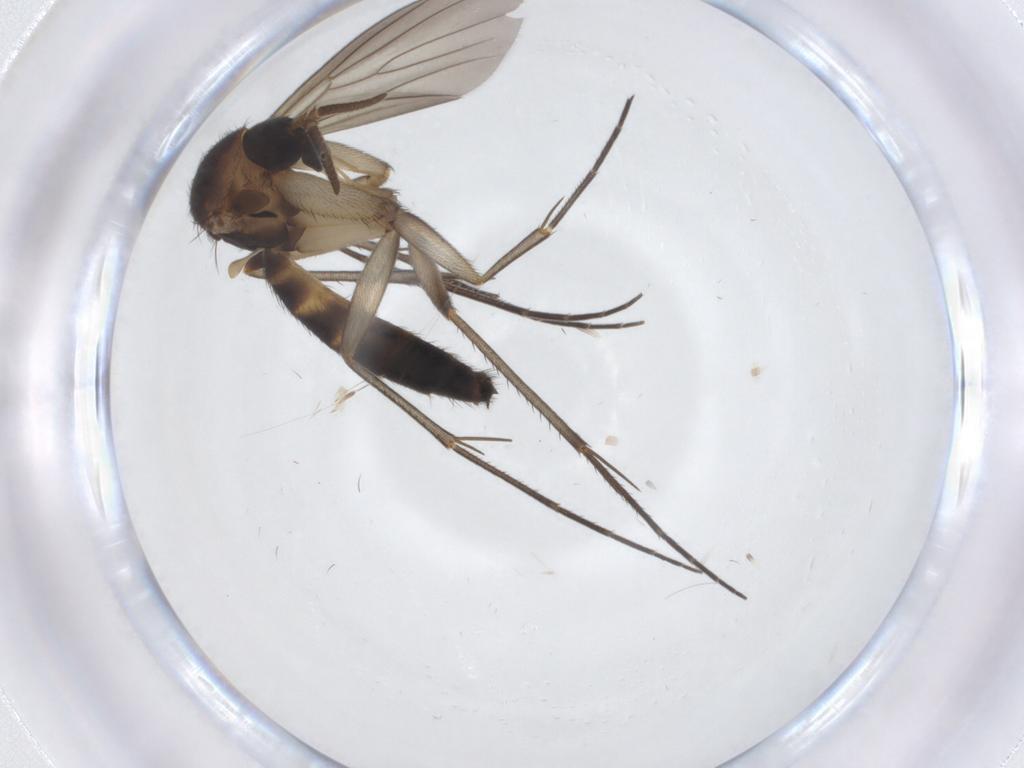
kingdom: Animalia
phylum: Arthropoda
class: Insecta
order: Diptera
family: Mycetophilidae
